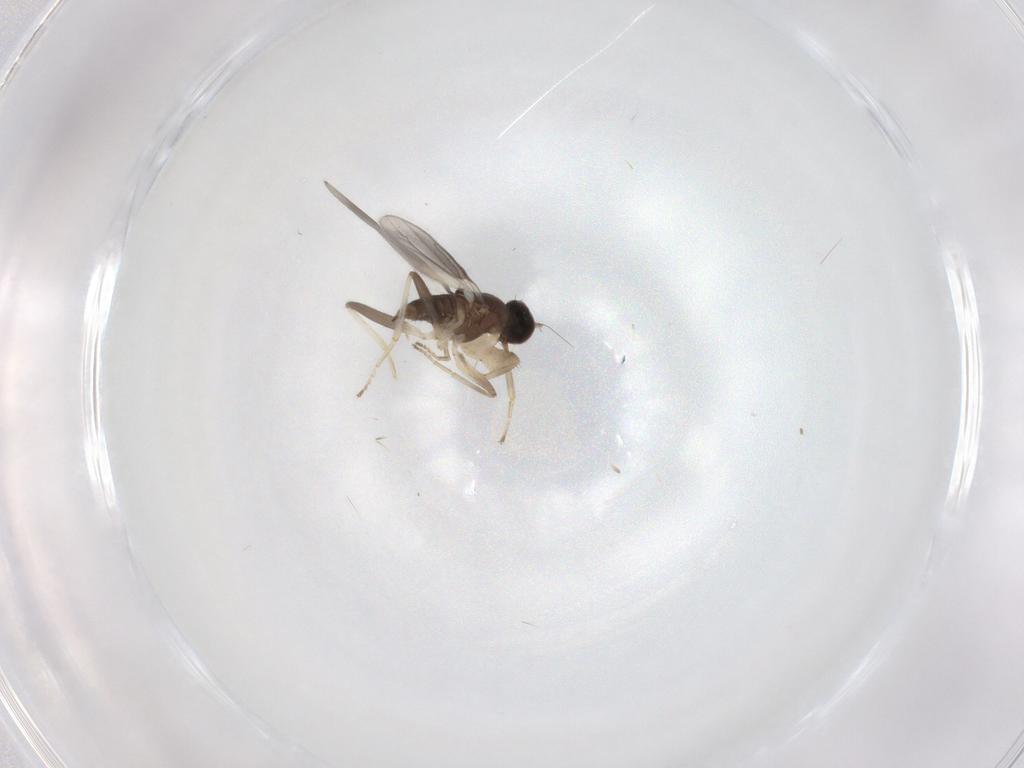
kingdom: Animalia
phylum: Arthropoda
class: Insecta
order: Diptera
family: Hybotidae
